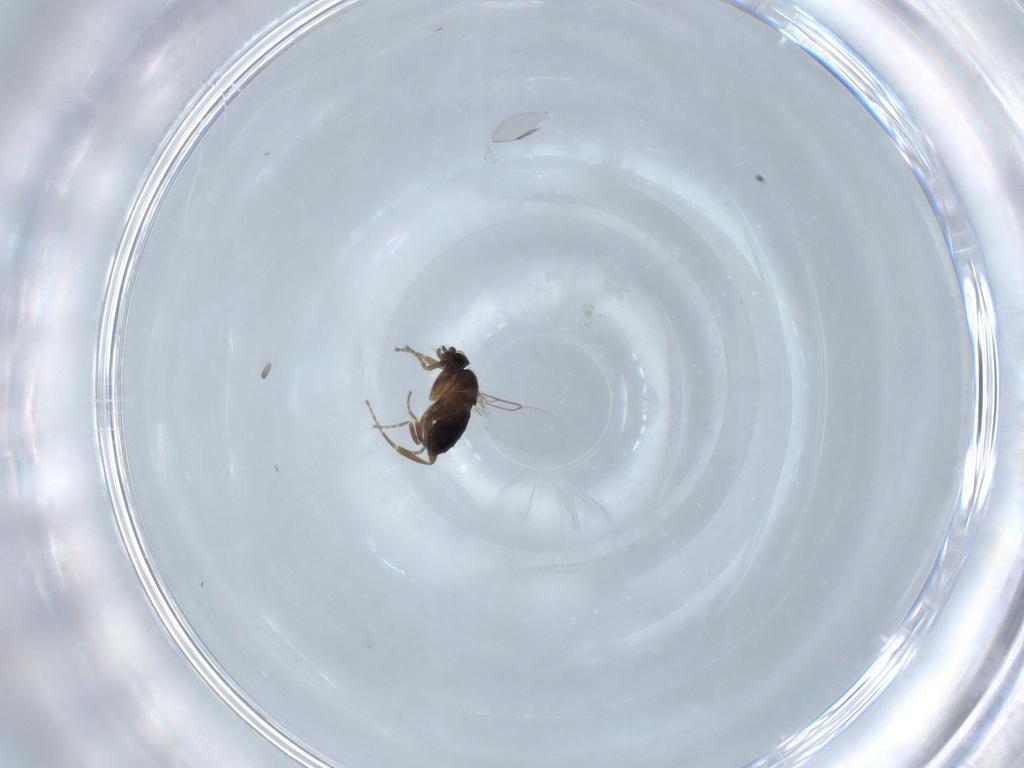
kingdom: Animalia
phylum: Arthropoda
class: Insecta
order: Diptera
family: Phoridae
